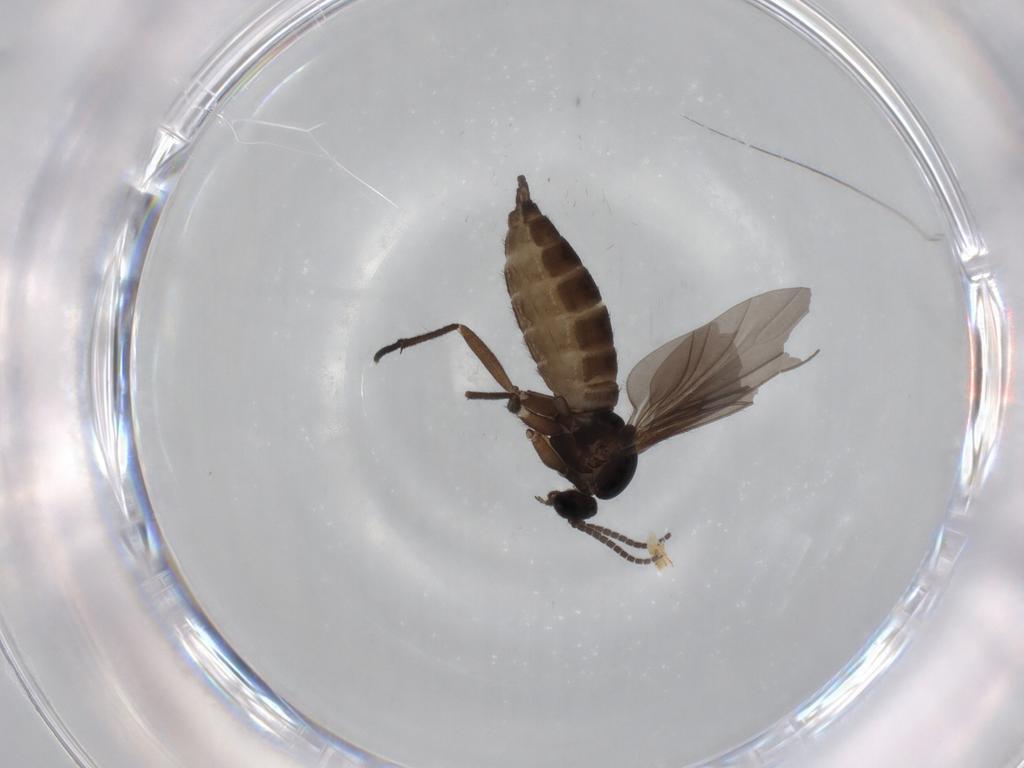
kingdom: Animalia
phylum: Arthropoda
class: Insecta
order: Diptera
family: Sciaridae
